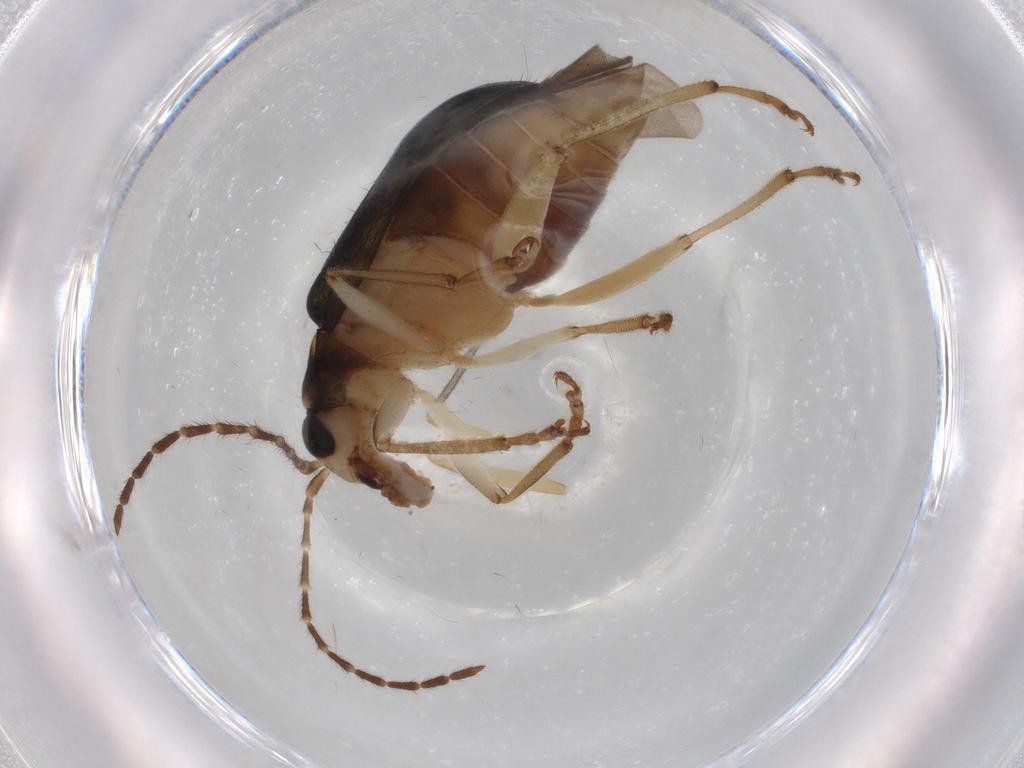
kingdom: Animalia
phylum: Arthropoda
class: Insecta
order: Coleoptera
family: Chrysomelidae
